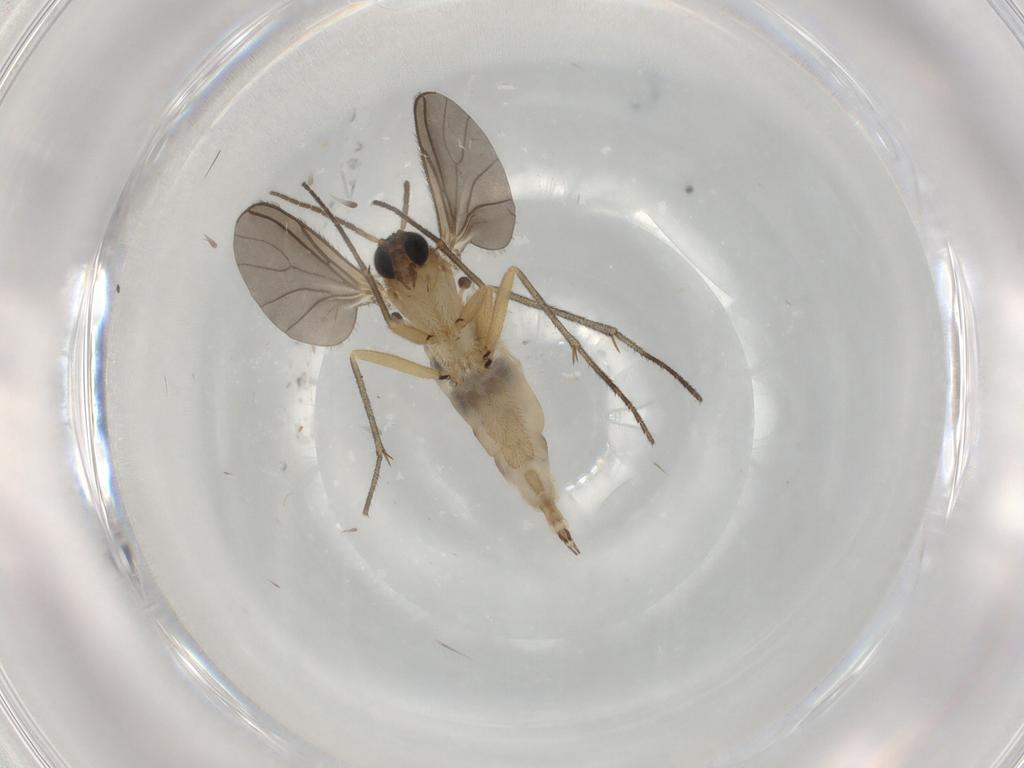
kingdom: Animalia
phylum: Arthropoda
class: Insecta
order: Diptera
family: Sciaridae
